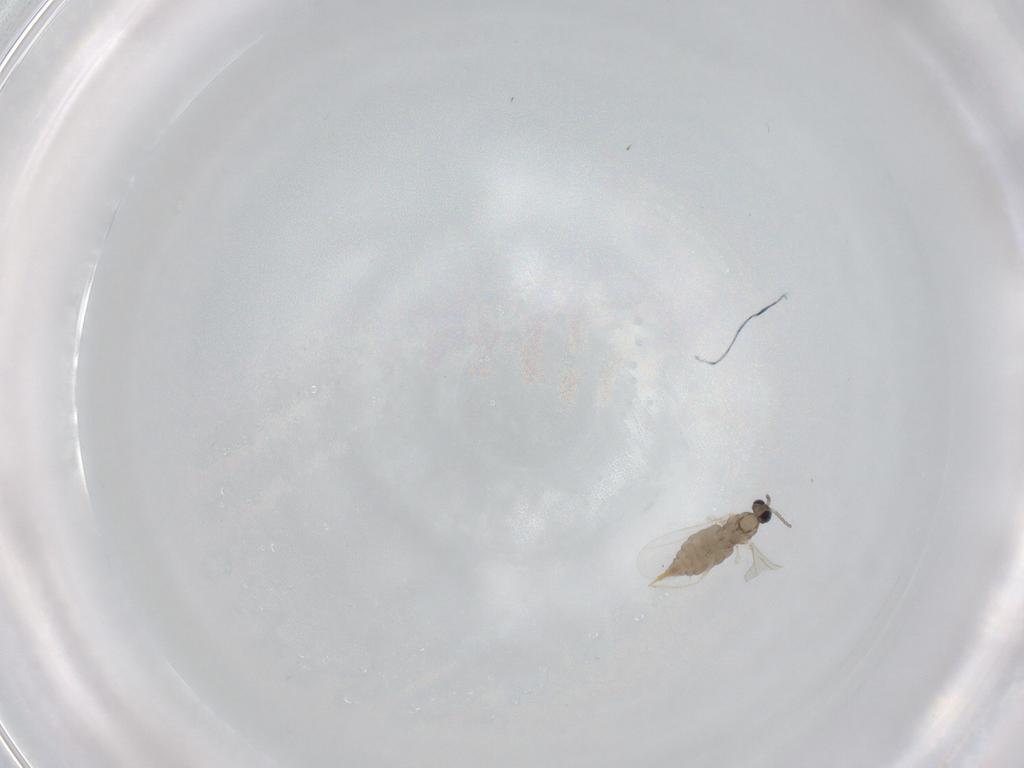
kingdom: Animalia
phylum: Arthropoda
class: Insecta
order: Diptera
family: Cecidomyiidae
